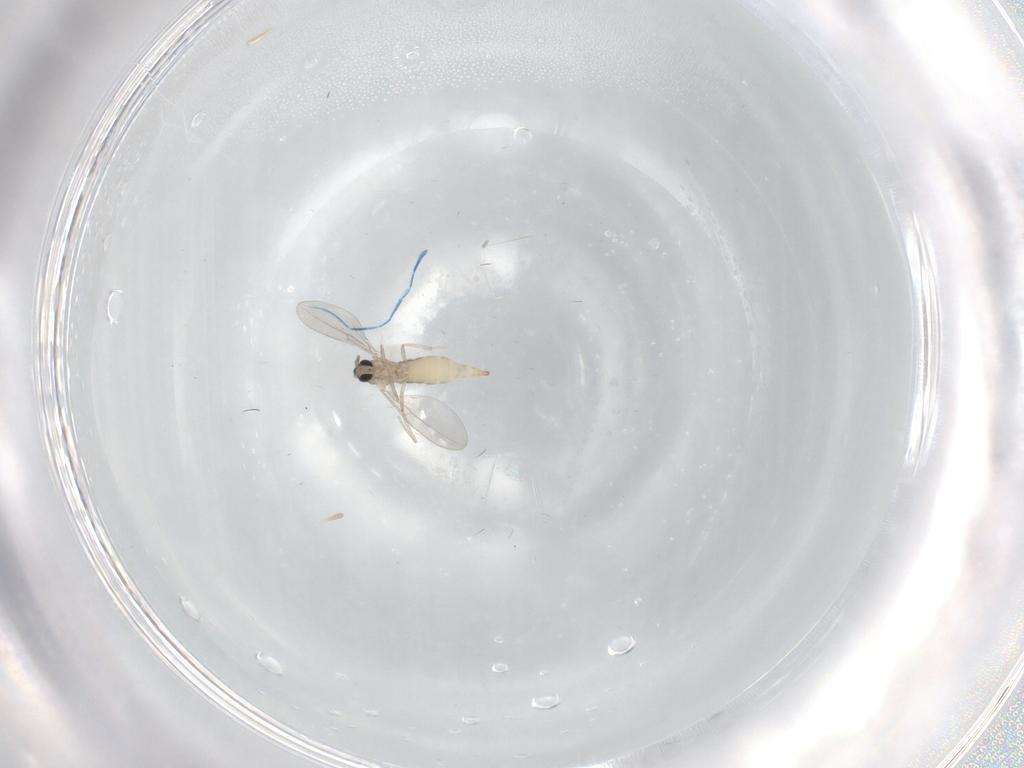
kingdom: Animalia
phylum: Arthropoda
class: Insecta
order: Diptera
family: Cecidomyiidae
